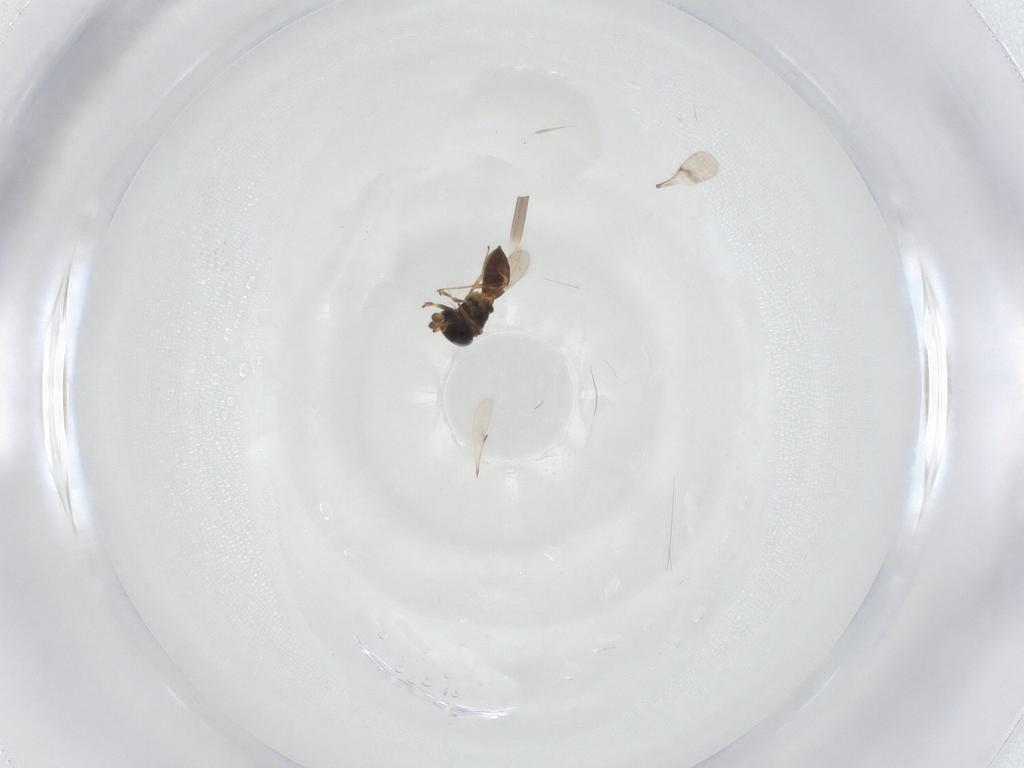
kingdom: Animalia
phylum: Arthropoda
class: Insecta
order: Hymenoptera
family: Scelionidae
